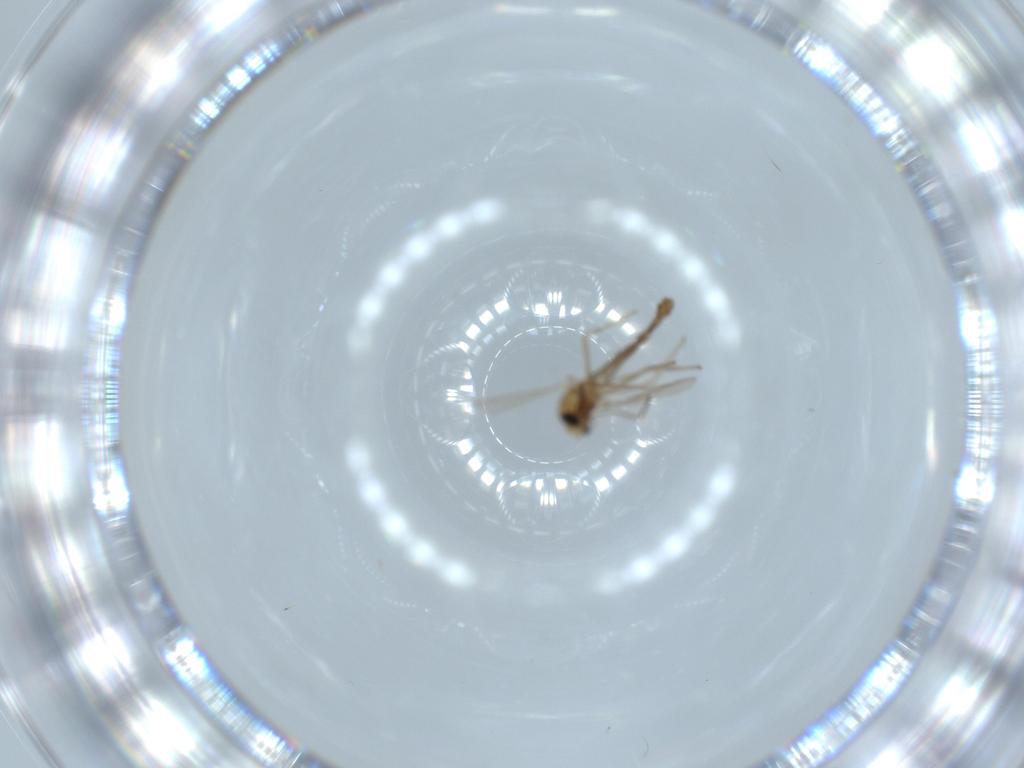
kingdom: Animalia
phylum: Arthropoda
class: Insecta
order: Diptera
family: Chironomidae
